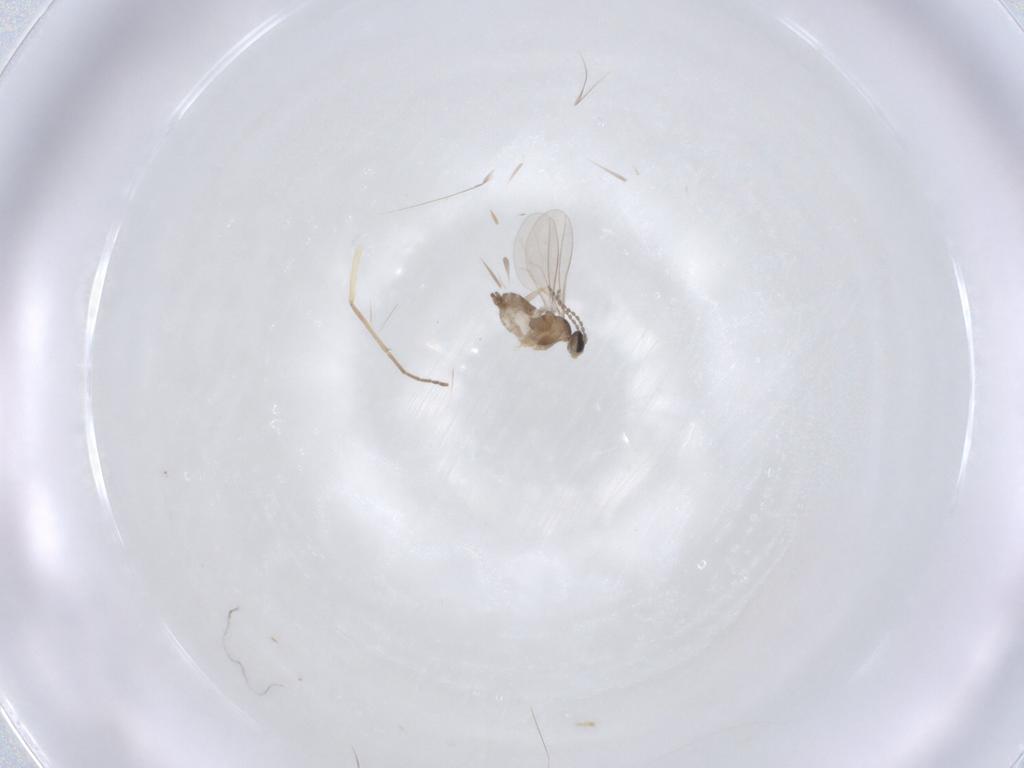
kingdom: Animalia
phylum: Arthropoda
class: Insecta
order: Diptera
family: Cecidomyiidae
